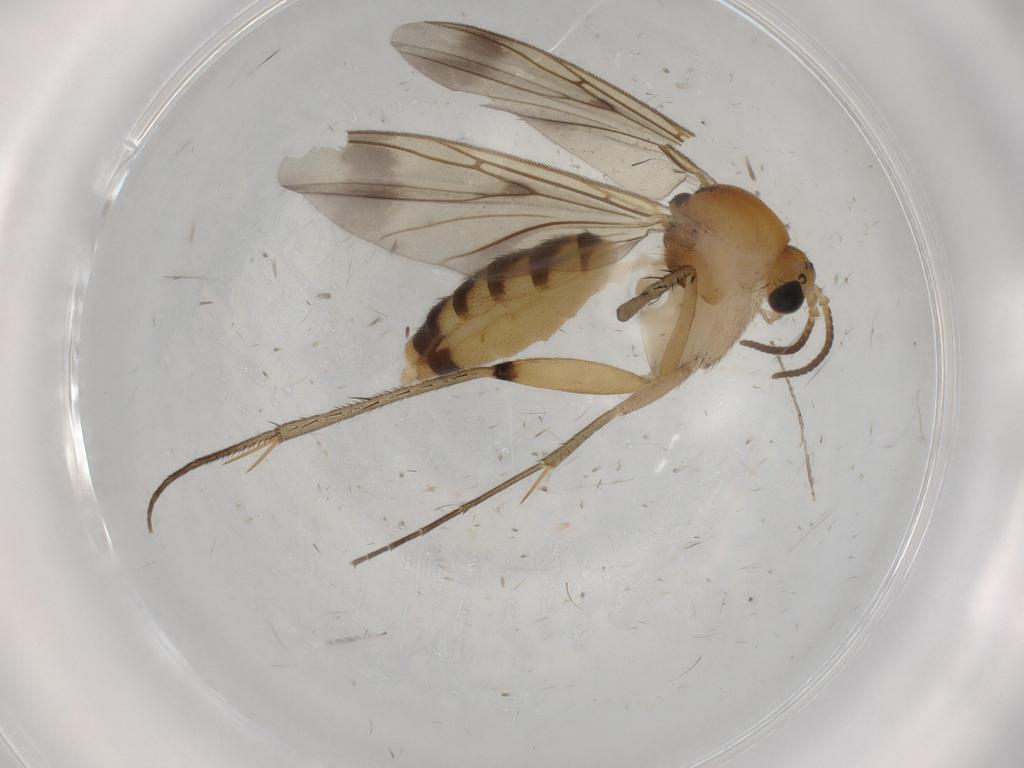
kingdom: Animalia
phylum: Arthropoda
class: Insecta
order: Diptera
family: Mycetophilidae
